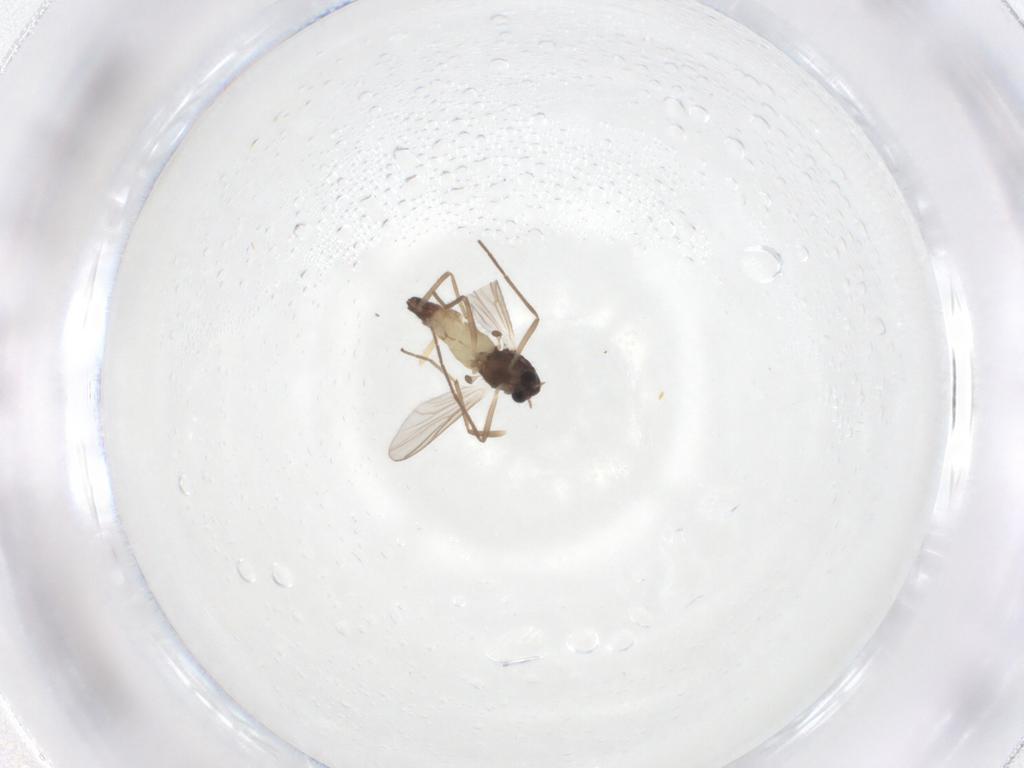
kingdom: Animalia
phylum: Arthropoda
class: Insecta
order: Diptera
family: Chironomidae
